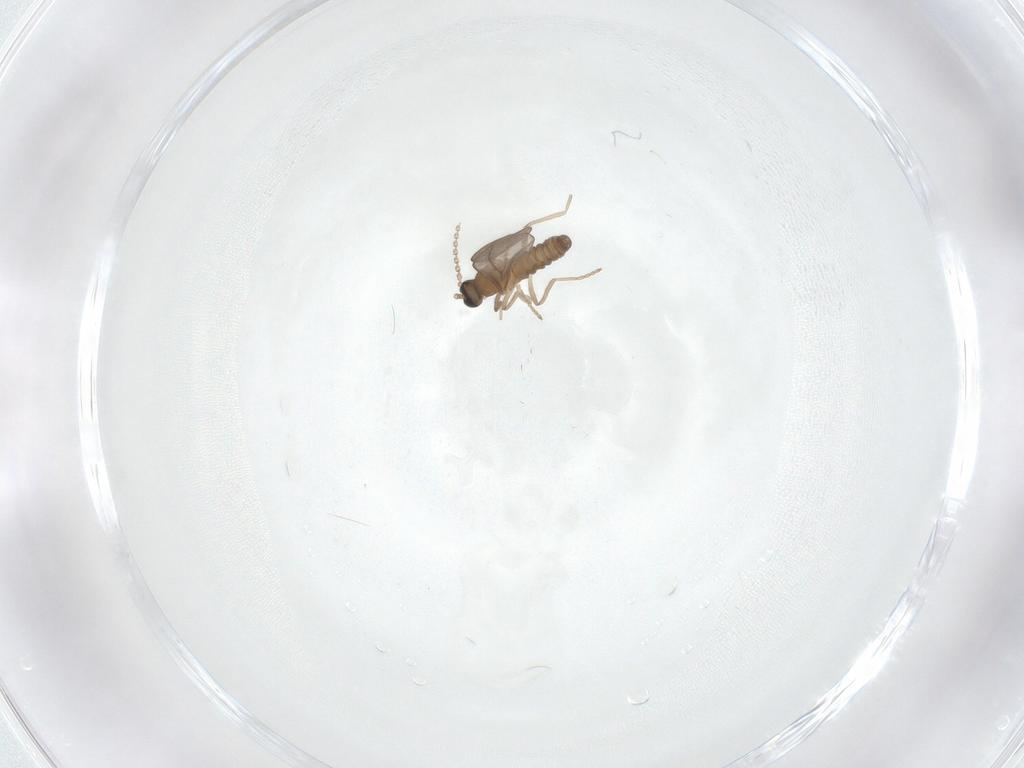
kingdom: Animalia
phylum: Arthropoda
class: Insecta
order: Diptera
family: Cecidomyiidae
